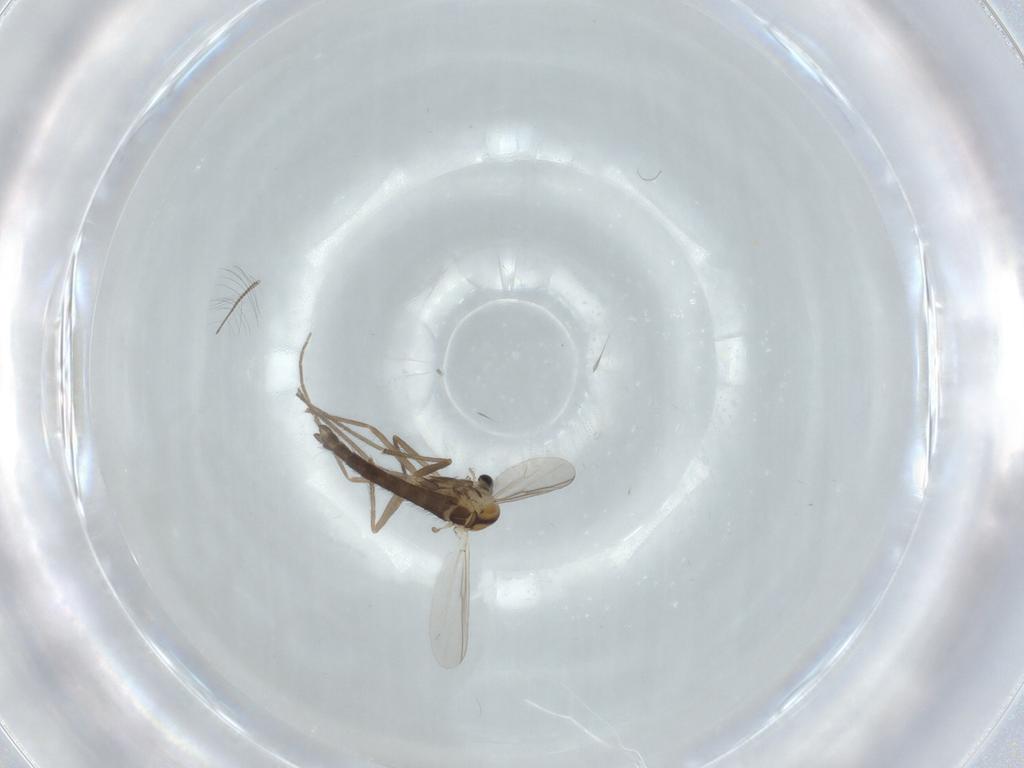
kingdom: Animalia
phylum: Arthropoda
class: Insecta
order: Diptera
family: Chironomidae
